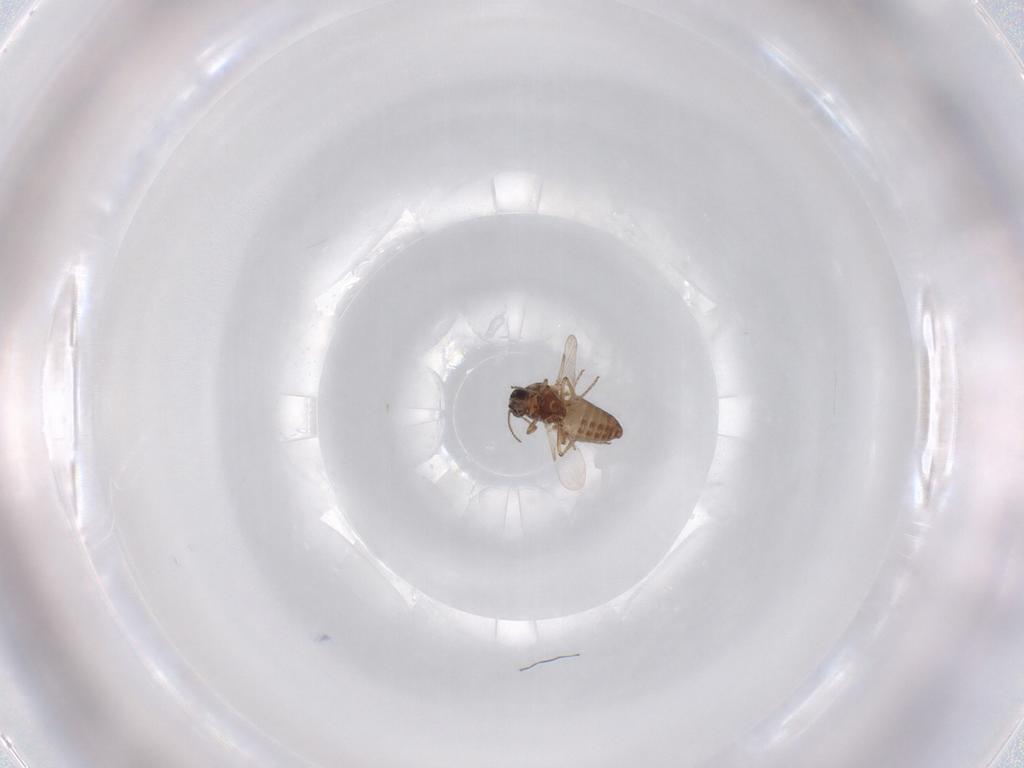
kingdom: Animalia
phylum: Arthropoda
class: Insecta
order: Diptera
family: Ceratopogonidae
